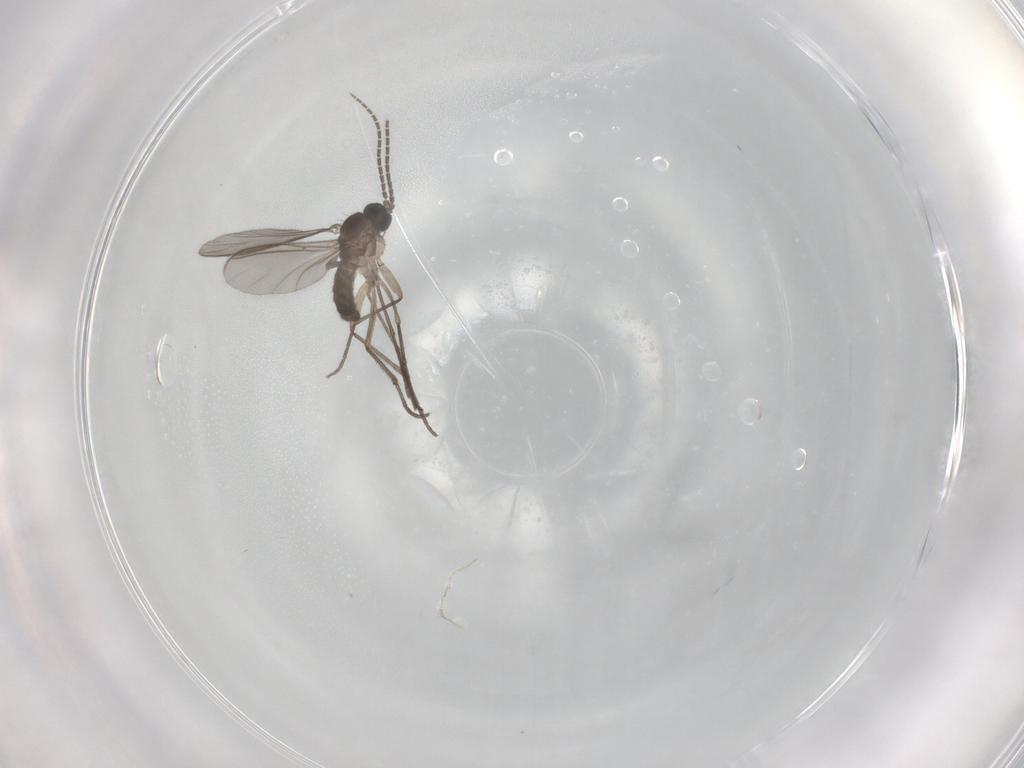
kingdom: Animalia
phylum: Arthropoda
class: Insecta
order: Diptera
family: Sciaridae
